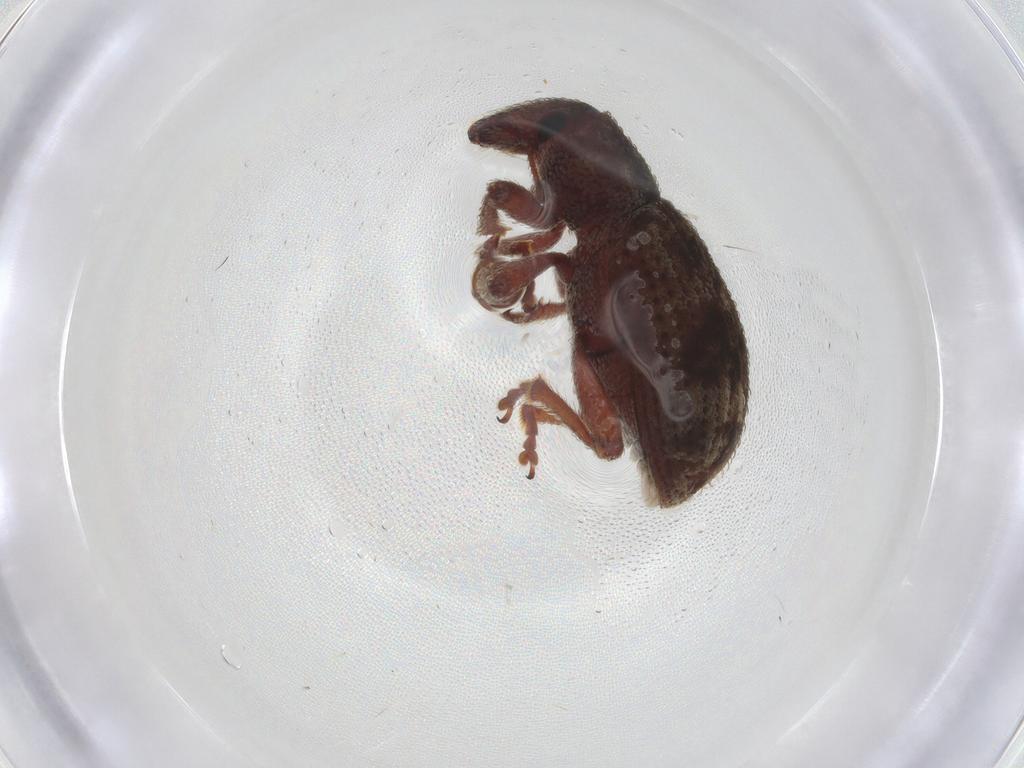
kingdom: Animalia
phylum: Arthropoda
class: Insecta
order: Coleoptera
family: Curculionidae
